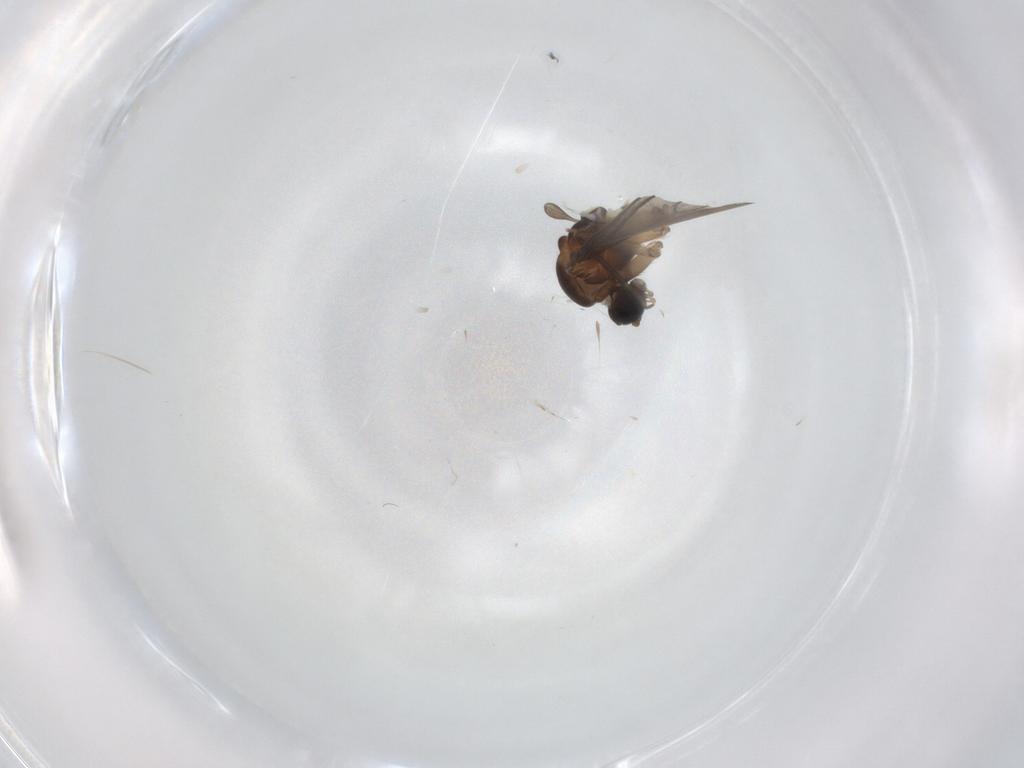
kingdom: Animalia
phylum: Arthropoda
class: Insecta
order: Diptera
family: Sciaridae
